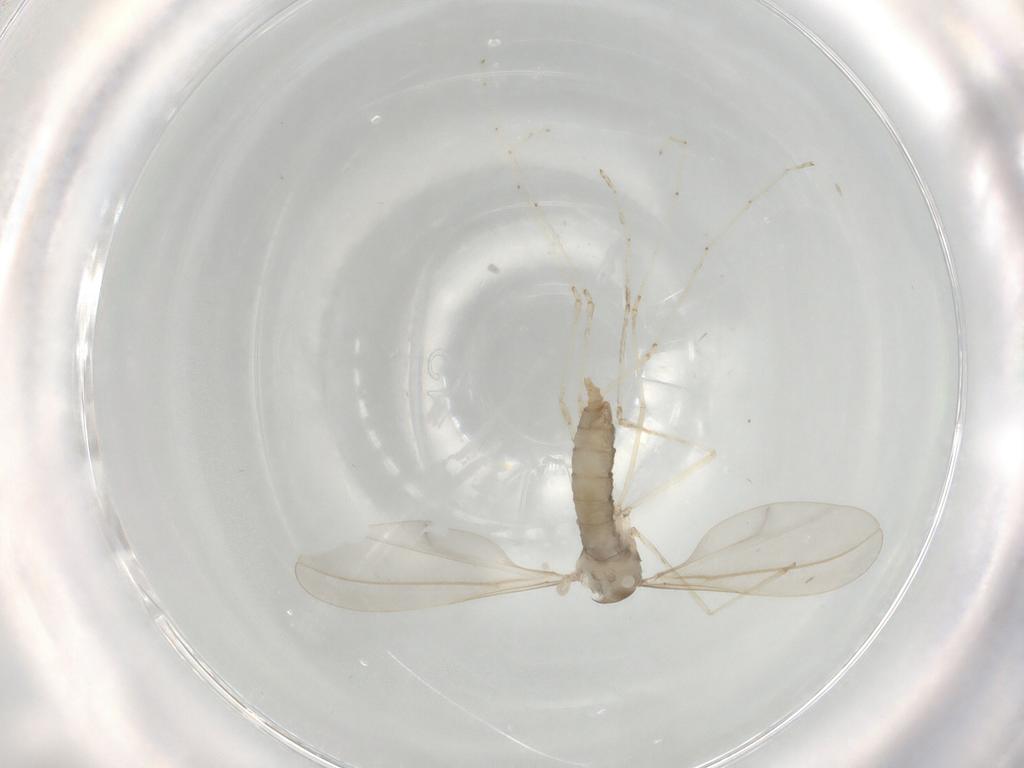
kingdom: Animalia
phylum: Arthropoda
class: Insecta
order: Diptera
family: Cecidomyiidae
